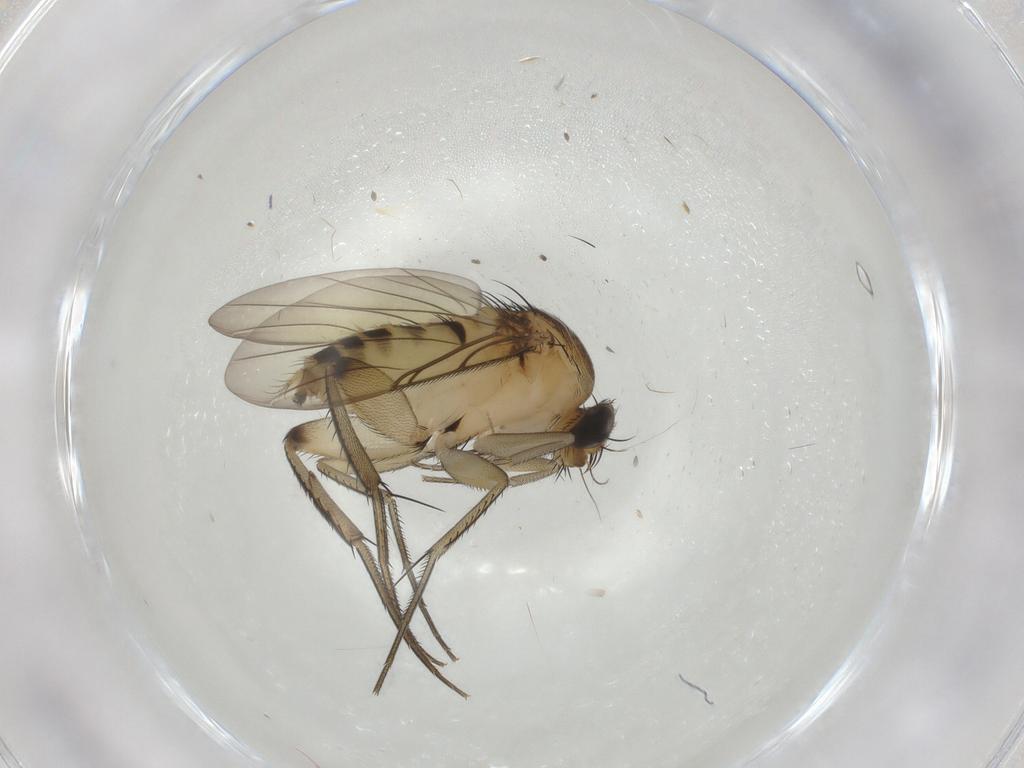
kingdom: Animalia
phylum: Arthropoda
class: Insecta
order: Diptera
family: Phoridae
